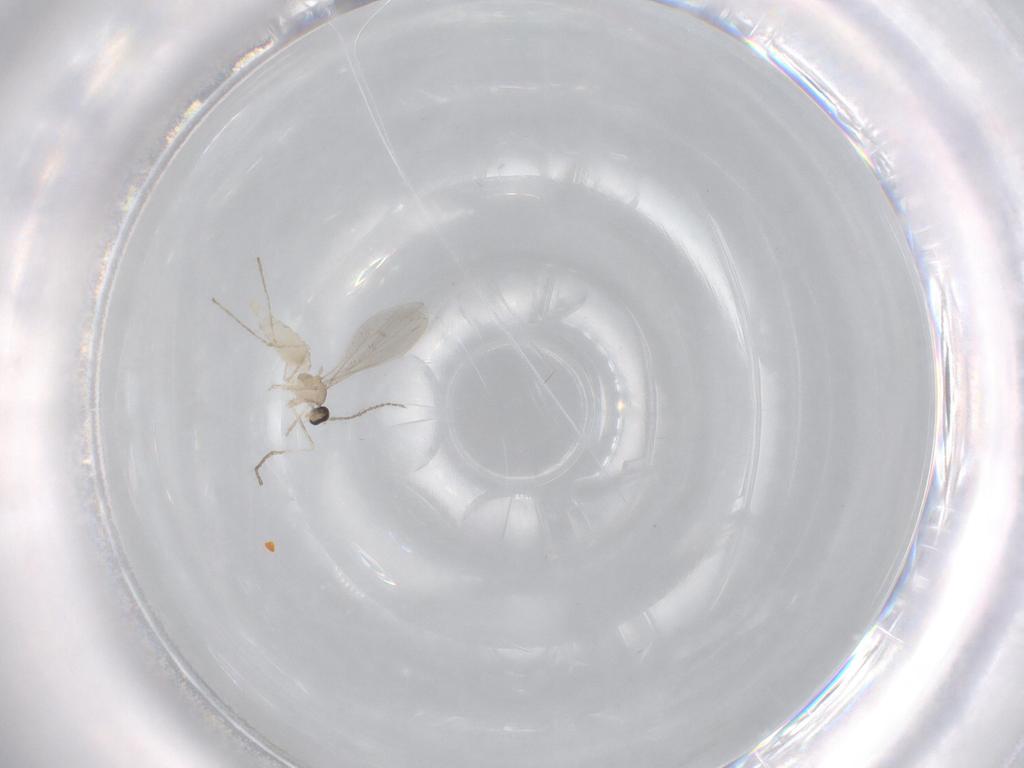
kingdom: Animalia
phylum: Arthropoda
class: Insecta
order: Diptera
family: Cecidomyiidae
